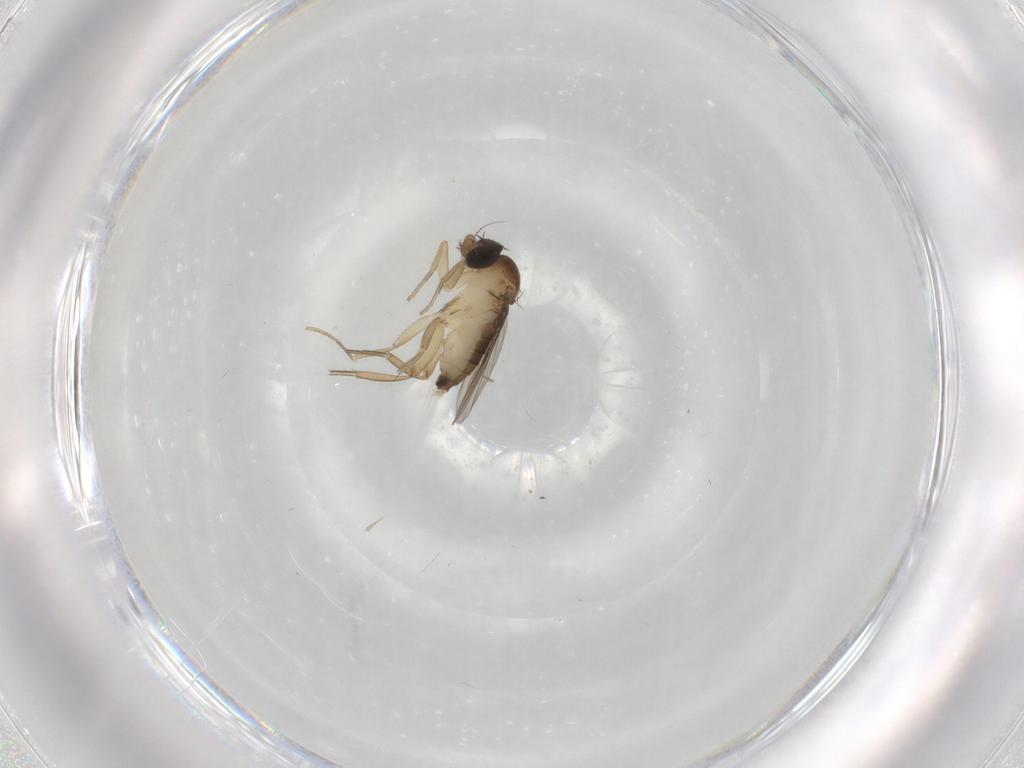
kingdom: Animalia
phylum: Arthropoda
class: Insecta
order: Diptera
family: Phoridae
